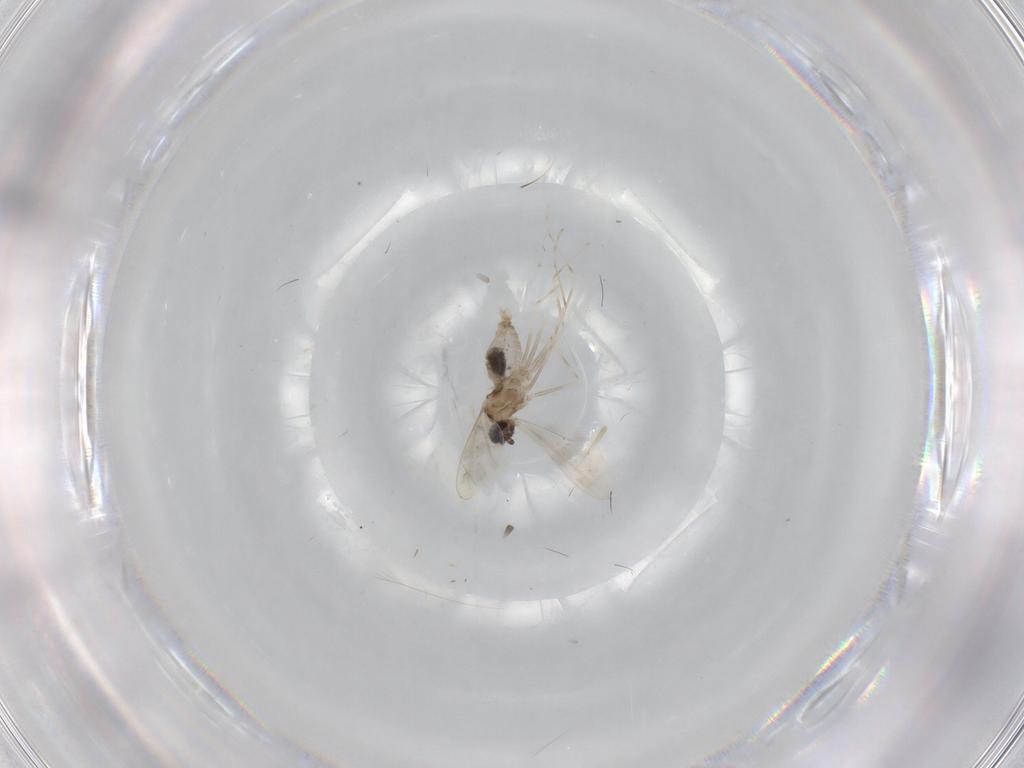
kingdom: Animalia
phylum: Arthropoda
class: Insecta
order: Diptera
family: Cecidomyiidae
